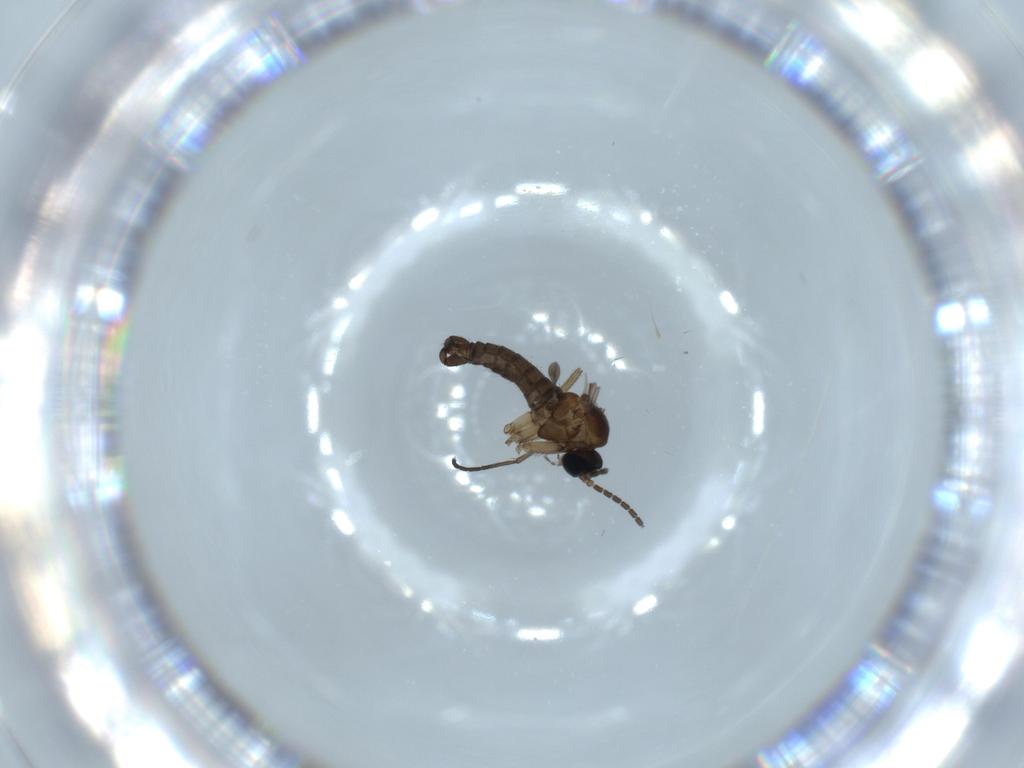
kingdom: Animalia
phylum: Arthropoda
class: Insecta
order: Diptera
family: Sciaridae
